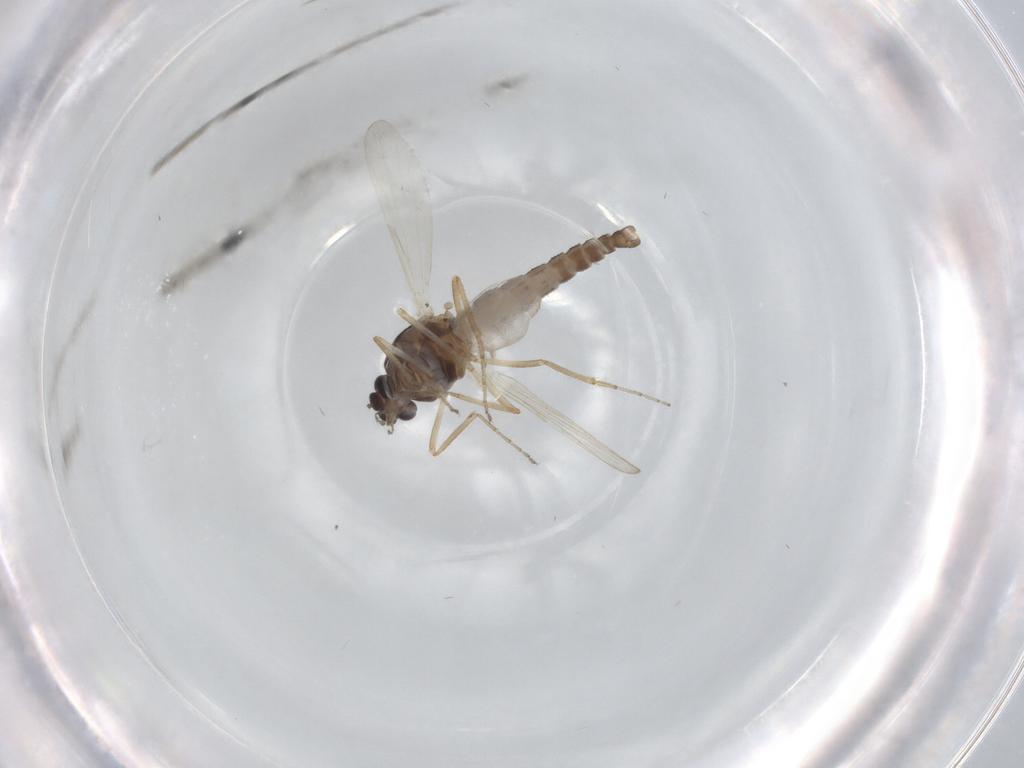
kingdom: Animalia
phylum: Arthropoda
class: Insecta
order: Diptera
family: Ceratopogonidae
